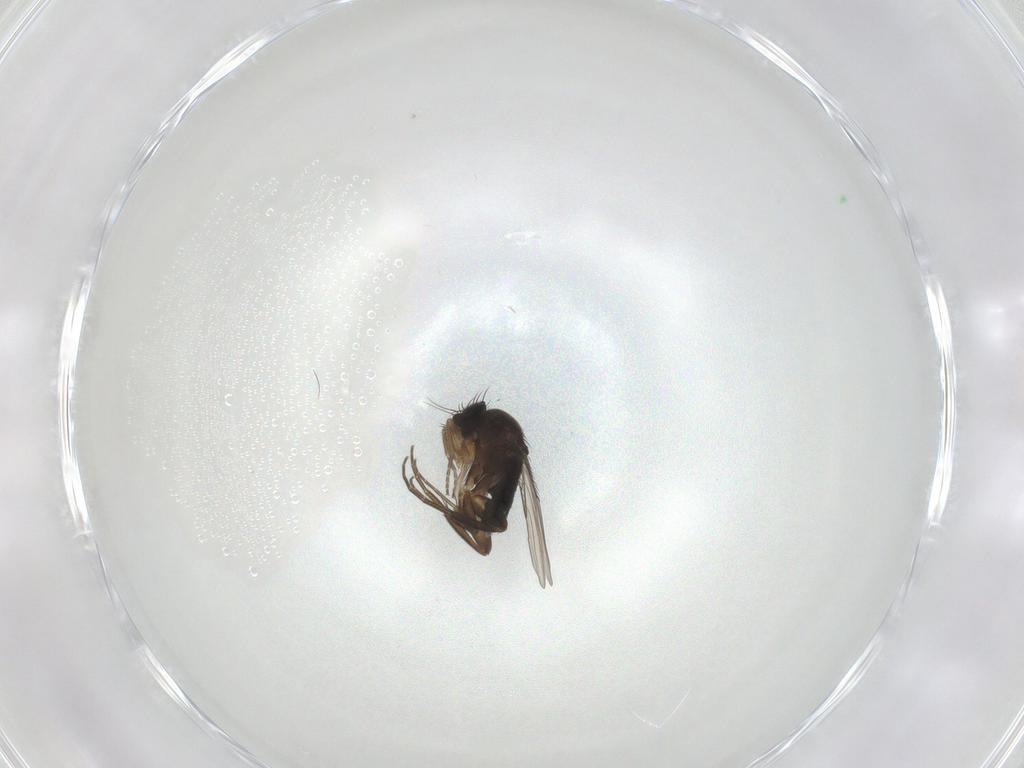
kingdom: Animalia
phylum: Arthropoda
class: Insecta
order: Diptera
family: Phoridae
